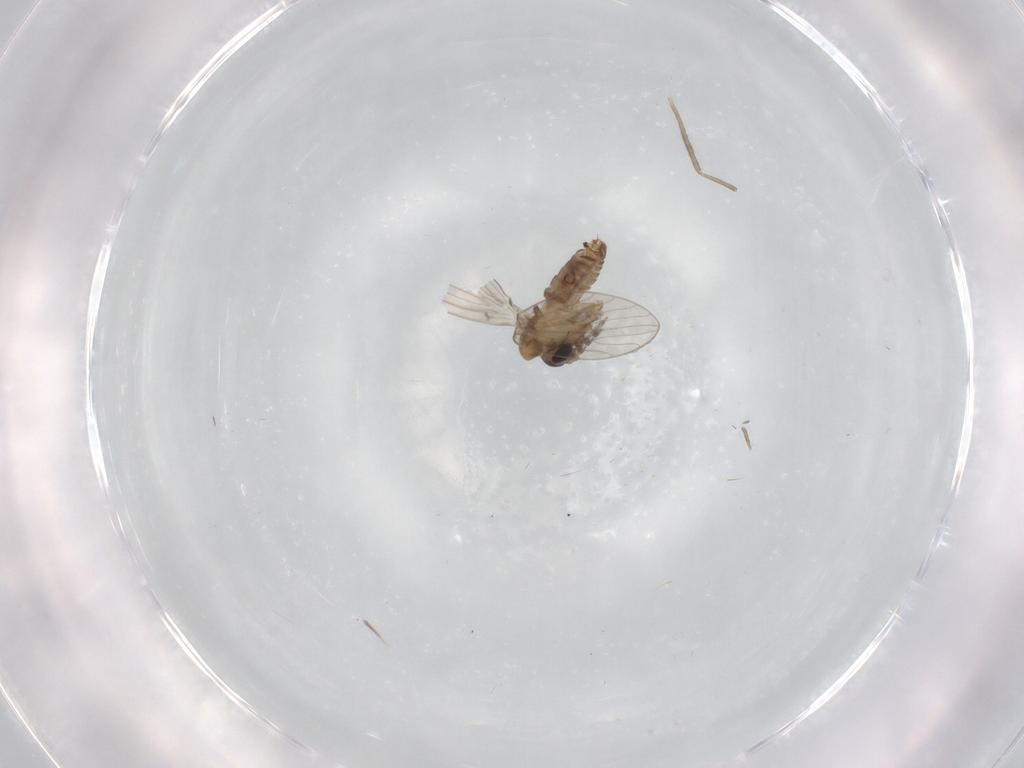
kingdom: Animalia
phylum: Arthropoda
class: Insecta
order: Diptera
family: Psychodidae
